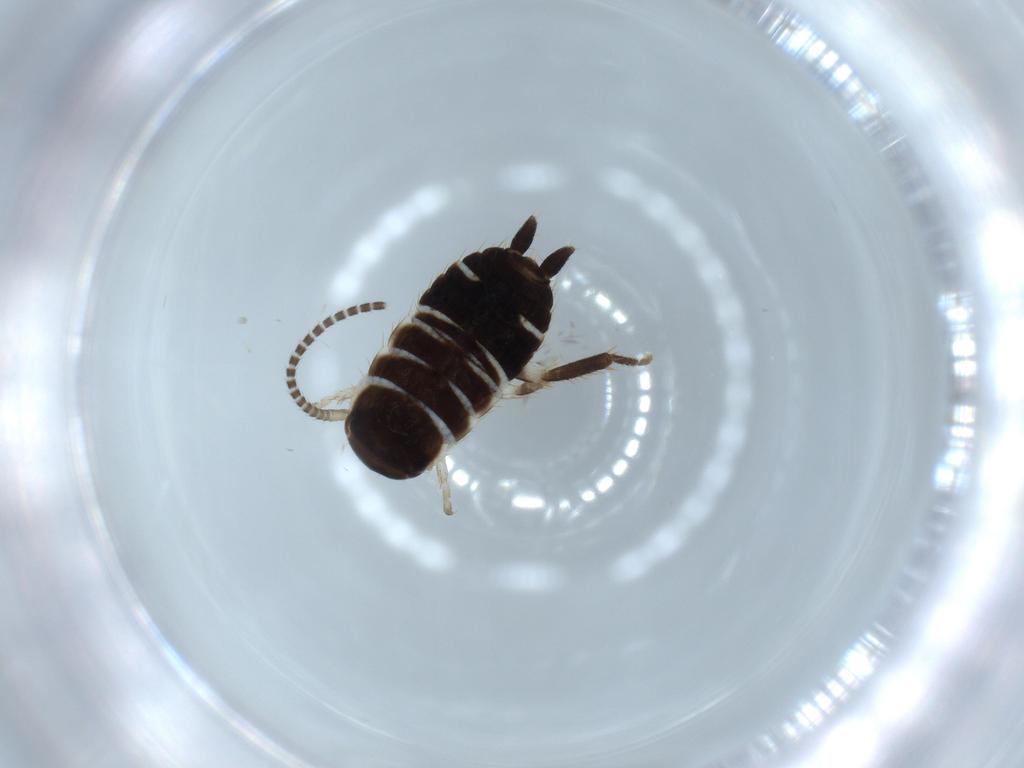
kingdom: Animalia
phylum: Arthropoda
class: Insecta
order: Blattodea
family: Ectobiidae
